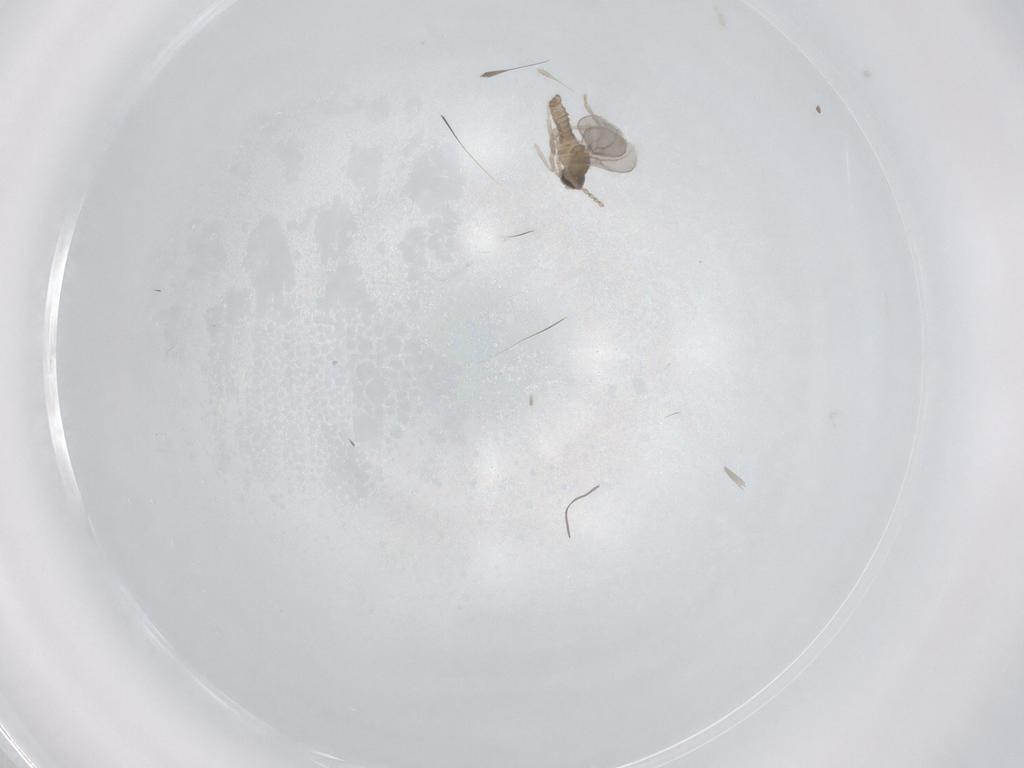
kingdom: Animalia
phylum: Arthropoda
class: Insecta
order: Diptera
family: Cecidomyiidae
